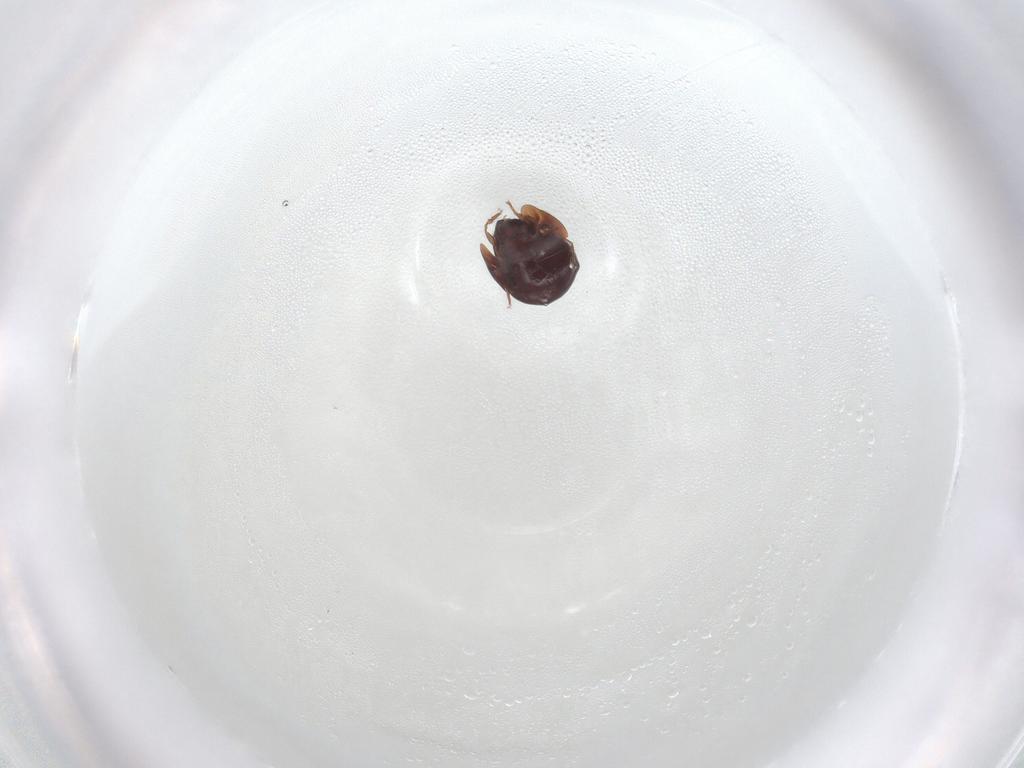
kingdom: Animalia
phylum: Arthropoda
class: Arachnida
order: Sarcoptiformes
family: Galumnidae
